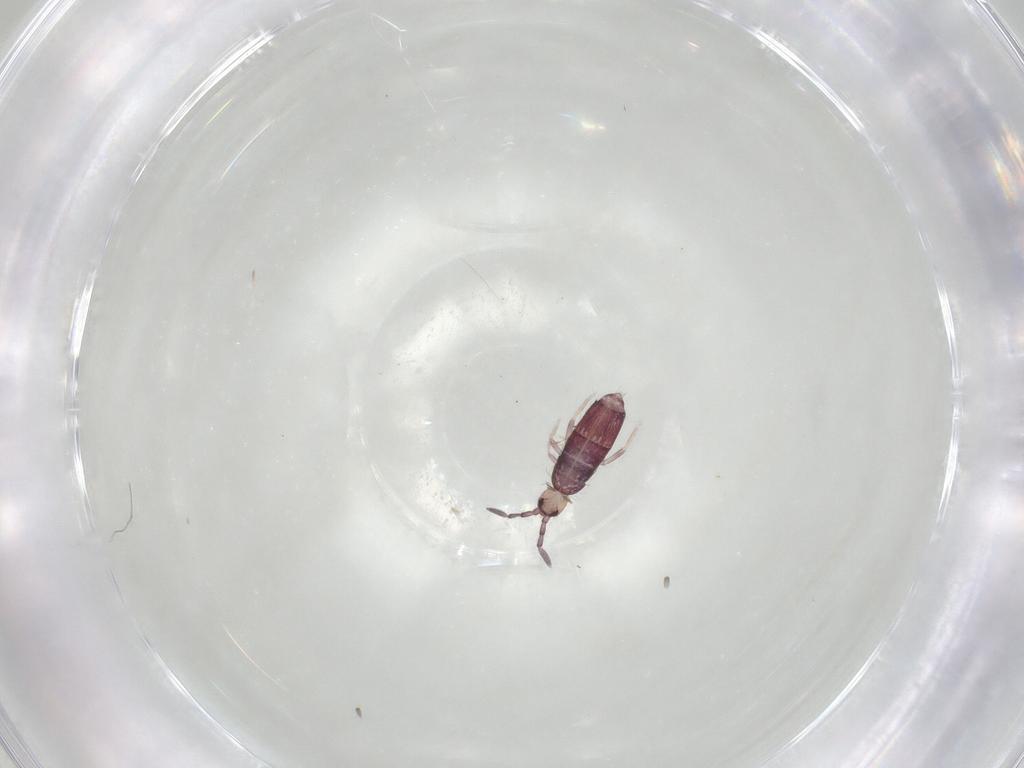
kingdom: Animalia
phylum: Arthropoda
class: Collembola
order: Entomobryomorpha
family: Entomobryidae
